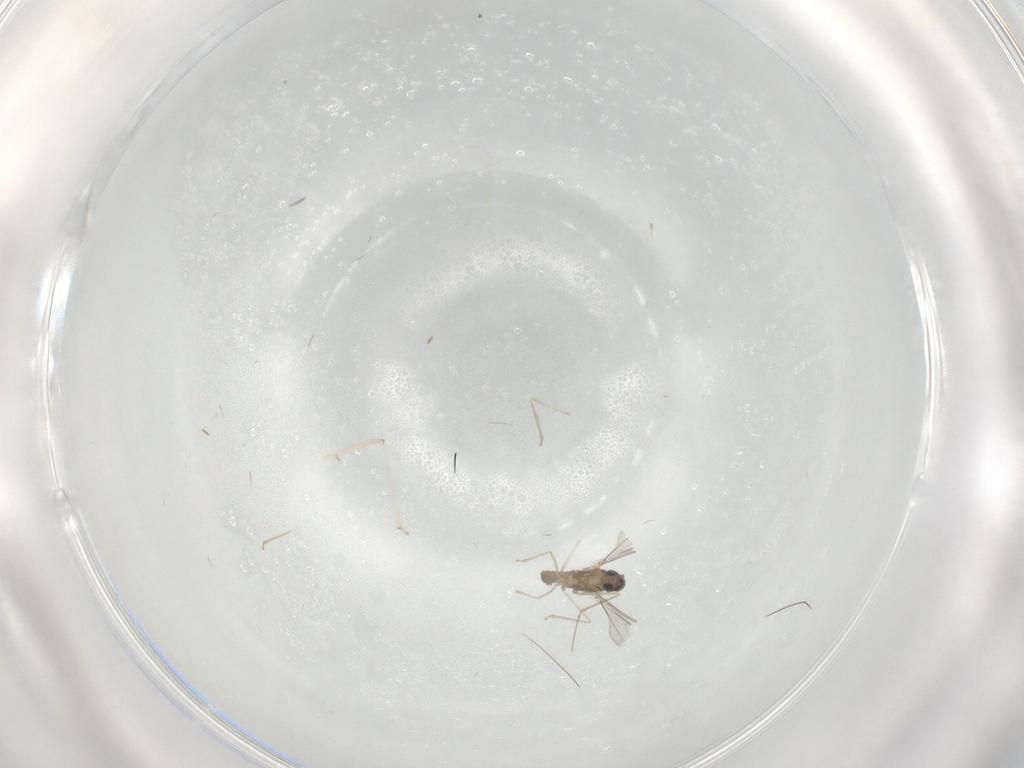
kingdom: Animalia
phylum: Arthropoda
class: Insecta
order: Diptera
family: Cecidomyiidae
